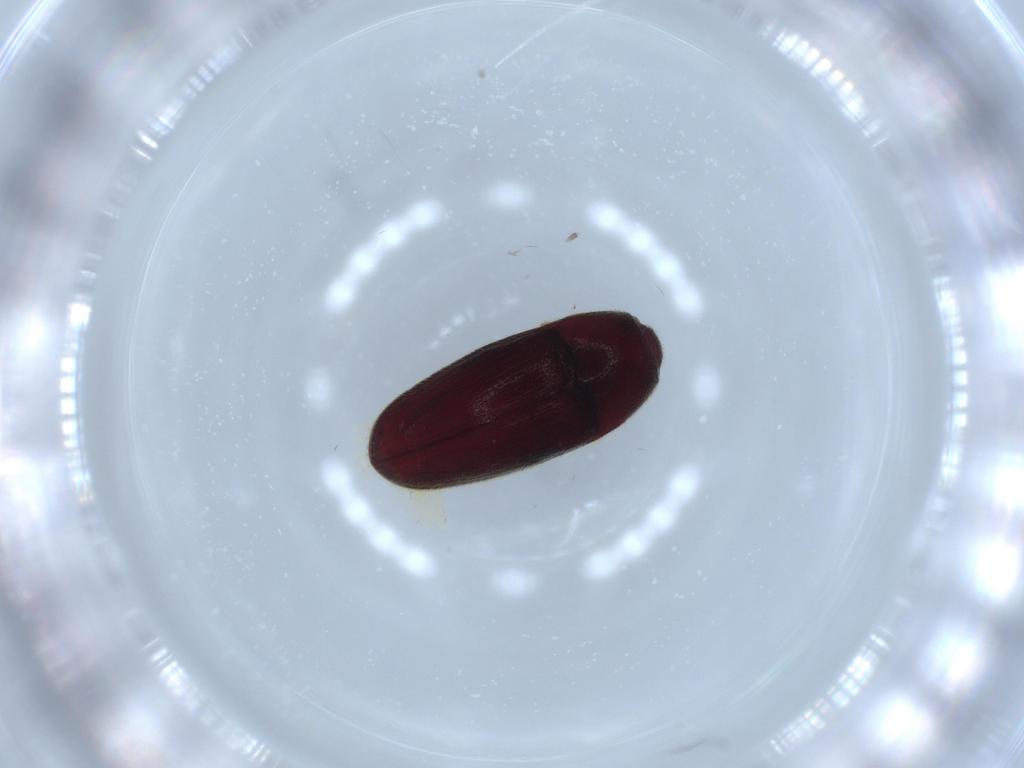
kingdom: Animalia
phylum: Arthropoda
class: Insecta
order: Coleoptera
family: Throscidae
